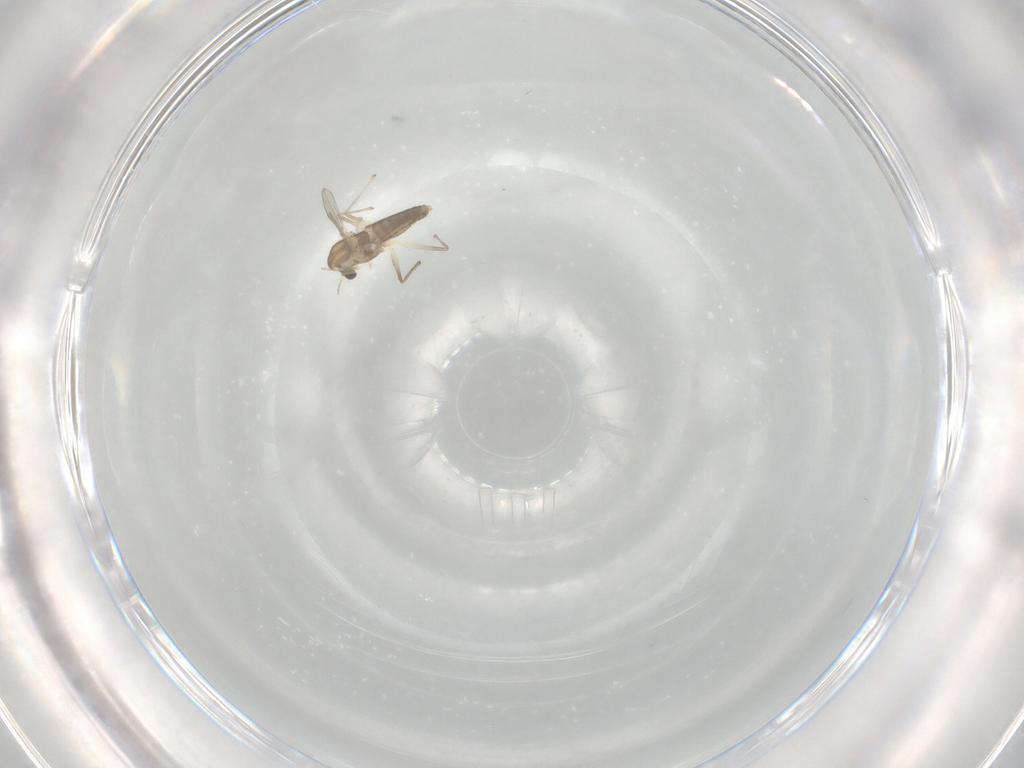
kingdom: Animalia
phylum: Arthropoda
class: Insecta
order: Diptera
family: Chironomidae
